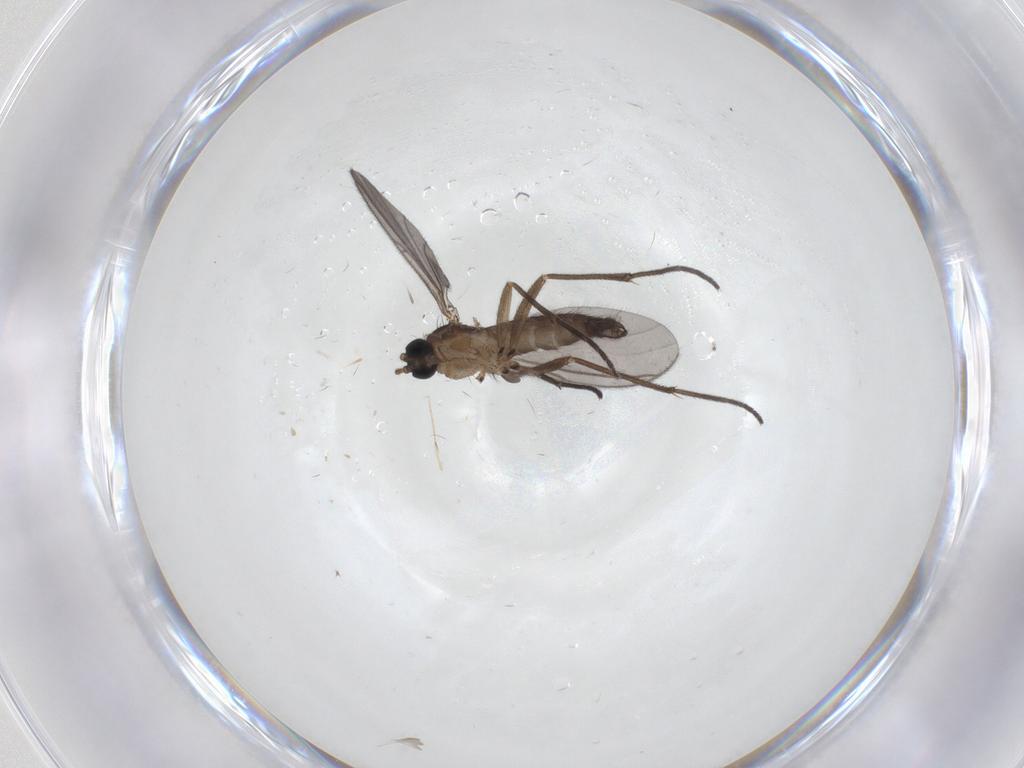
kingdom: Animalia
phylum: Arthropoda
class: Insecta
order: Diptera
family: Sciaridae
